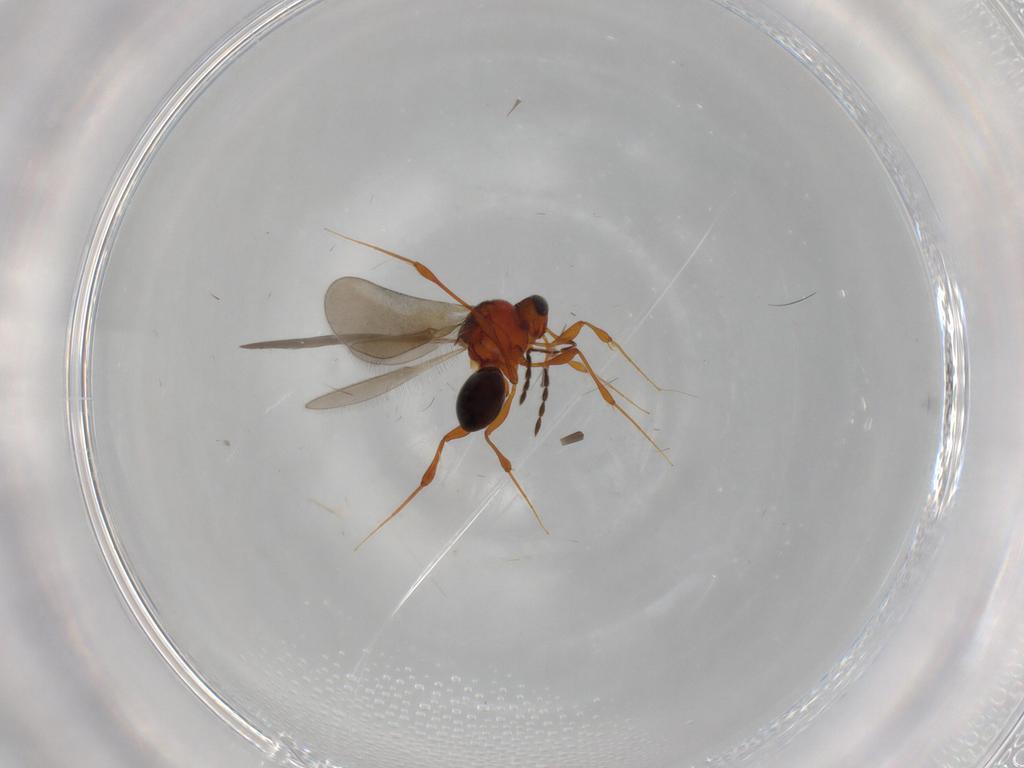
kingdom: Animalia
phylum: Arthropoda
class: Insecta
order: Hymenoptera
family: Platygastridae
